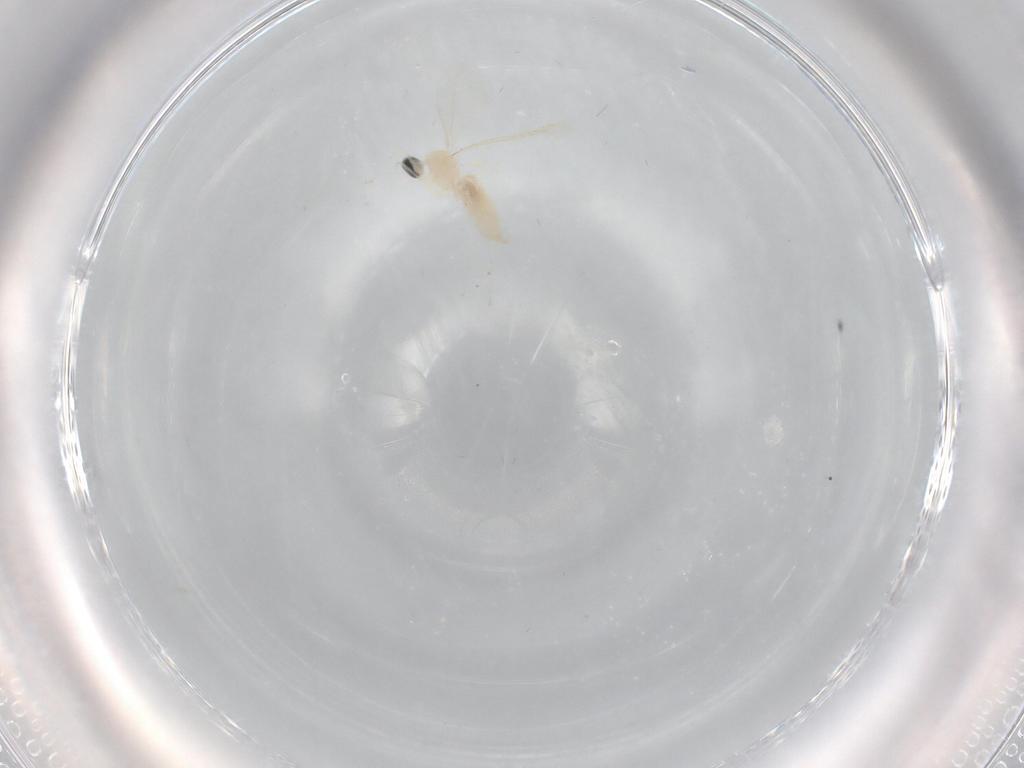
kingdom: Animalia
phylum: Arthropoda
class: Insecta
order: Diptera
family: Cecidomyiidae
